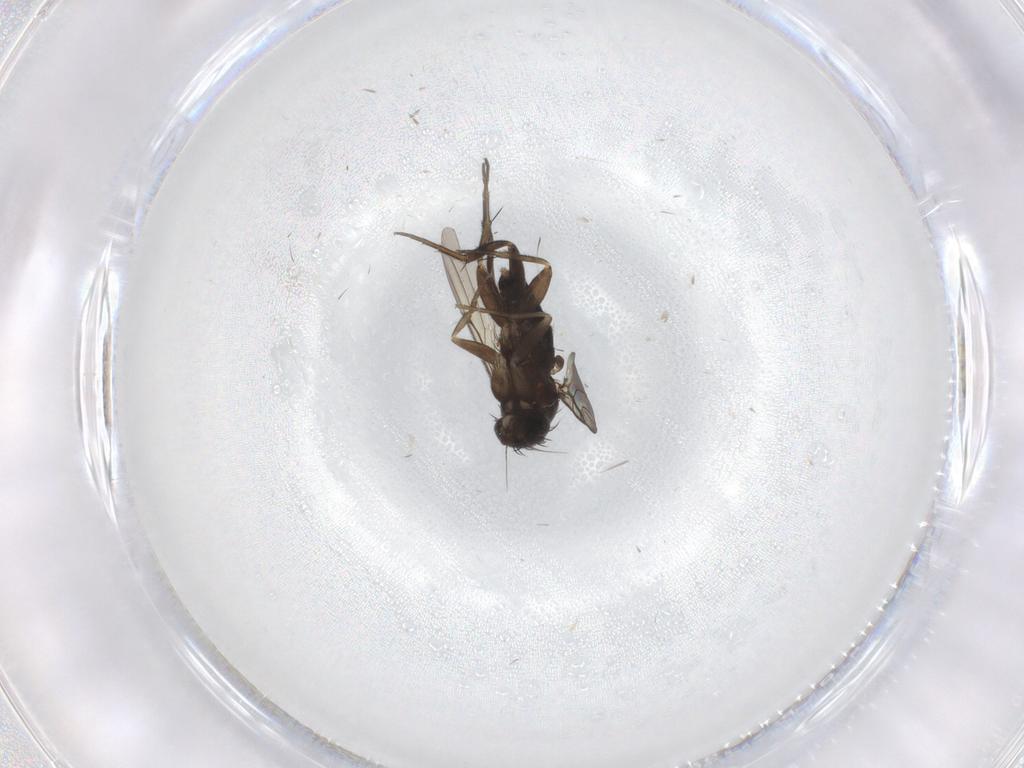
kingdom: Animalia
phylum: Arthropoda
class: Insecta
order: Diptera
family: Phoridae
